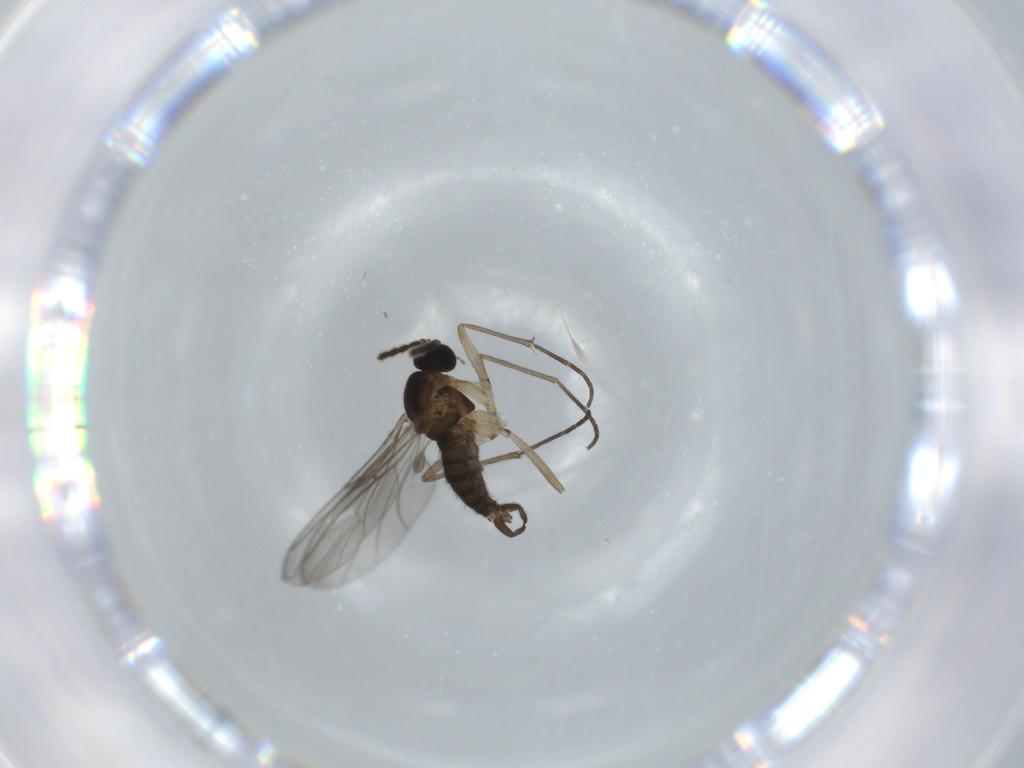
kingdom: Animalia
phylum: Arthropoda
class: Insecta
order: Diptera
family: Sciaridae
